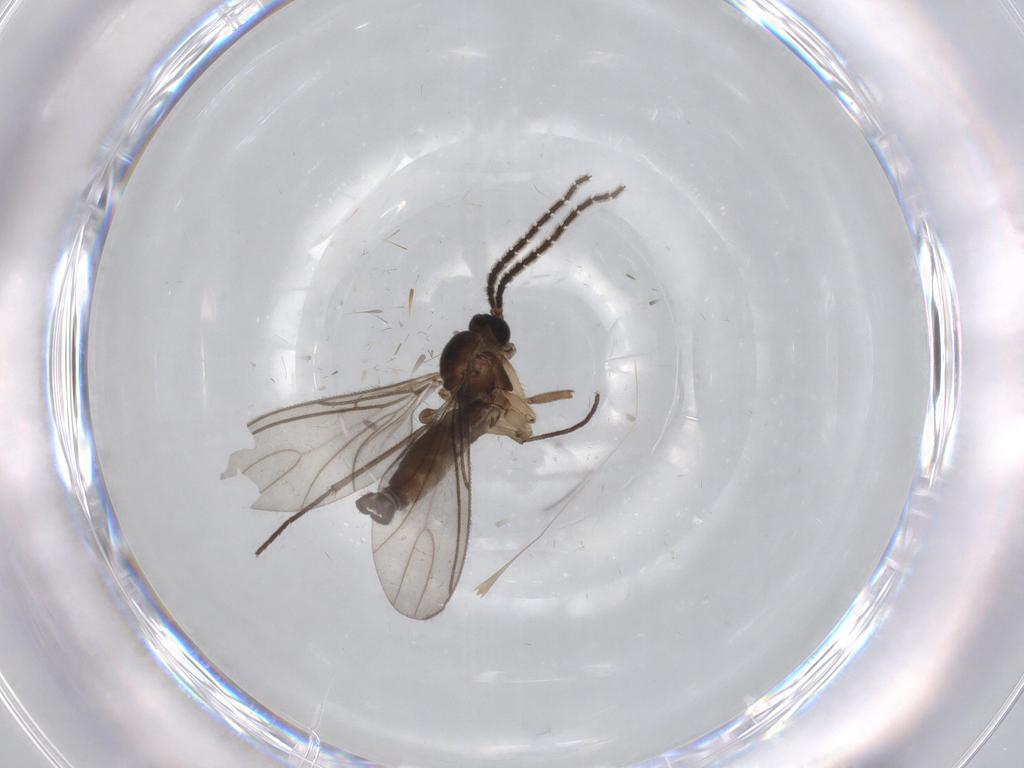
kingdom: Animalia
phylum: Arthropoda
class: Insecta
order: Diptera
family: Sciaridae
